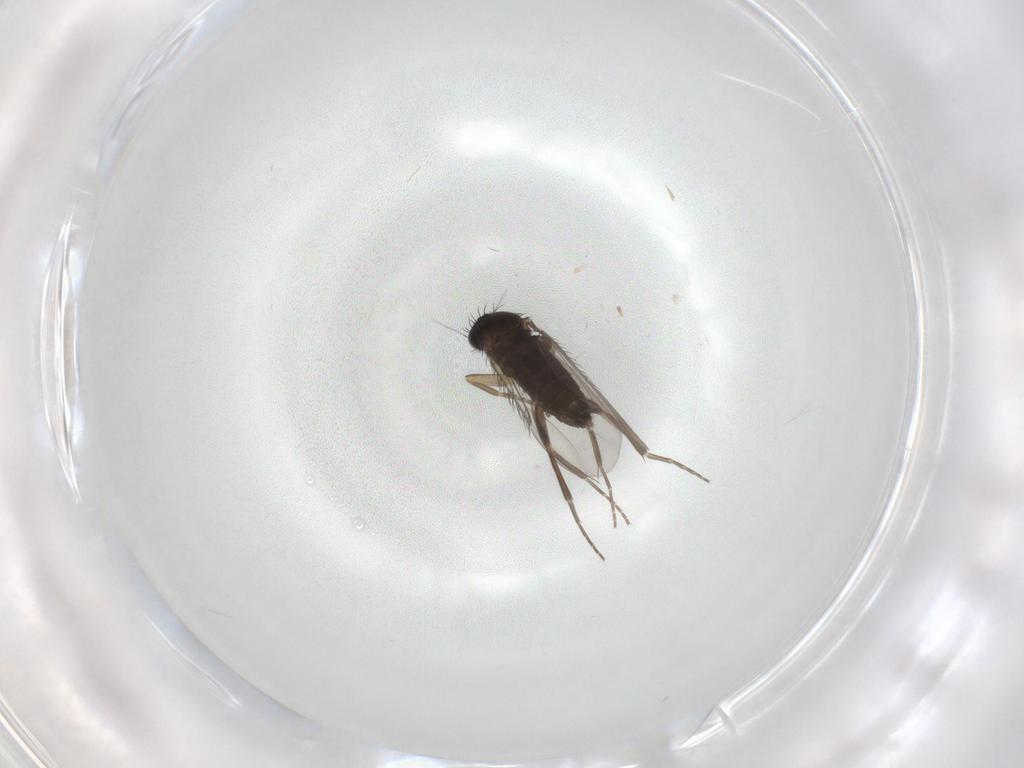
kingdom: Animalia
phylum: Arthropoda
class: Insecta
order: Diptera
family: Phoridae
